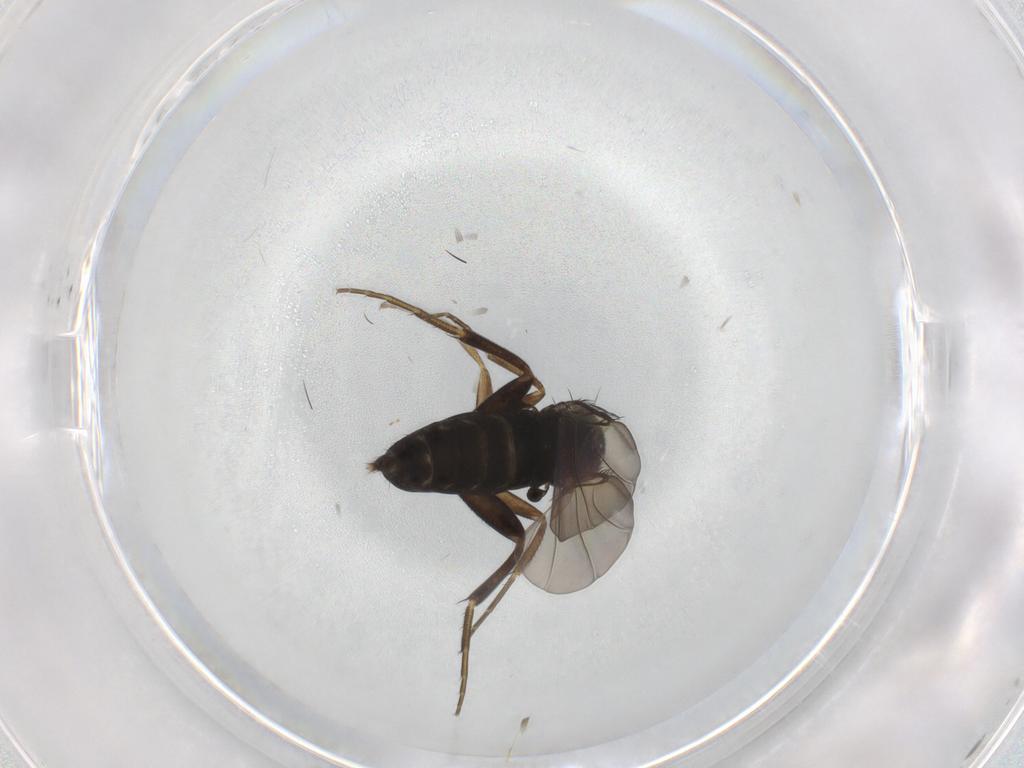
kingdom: Animalia
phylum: Arthropoda
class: Insecta
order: Diptera
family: Phoridae
